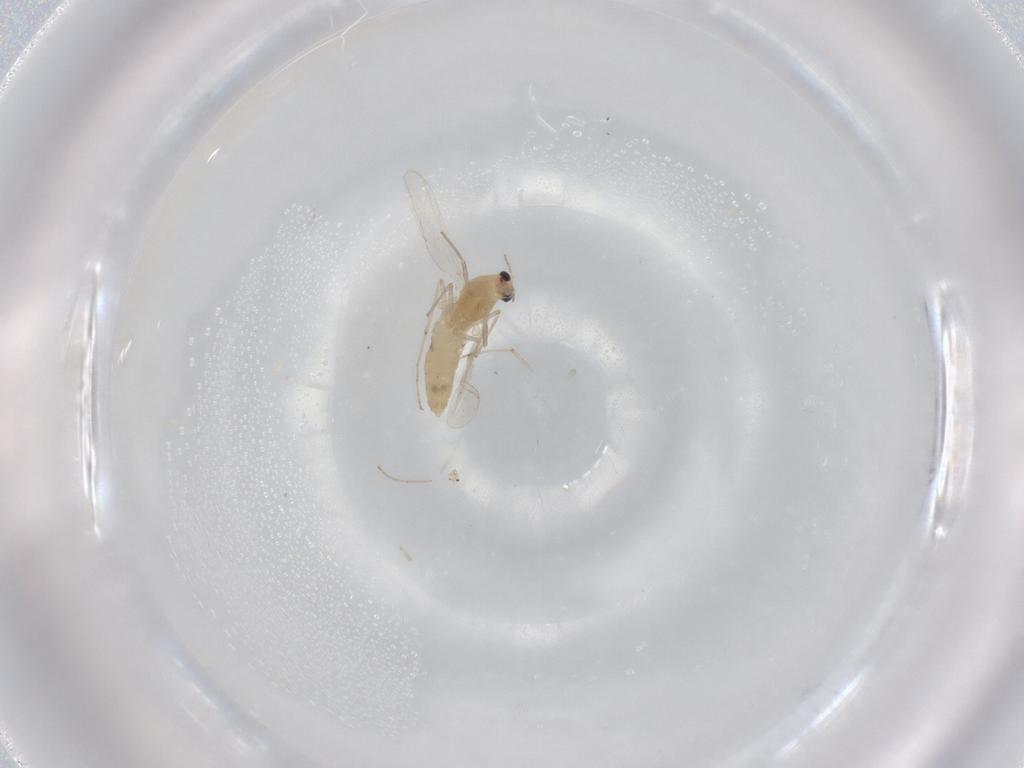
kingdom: Animalia
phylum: Arthropoda
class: Insecta
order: Diptera
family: Chironomidae
